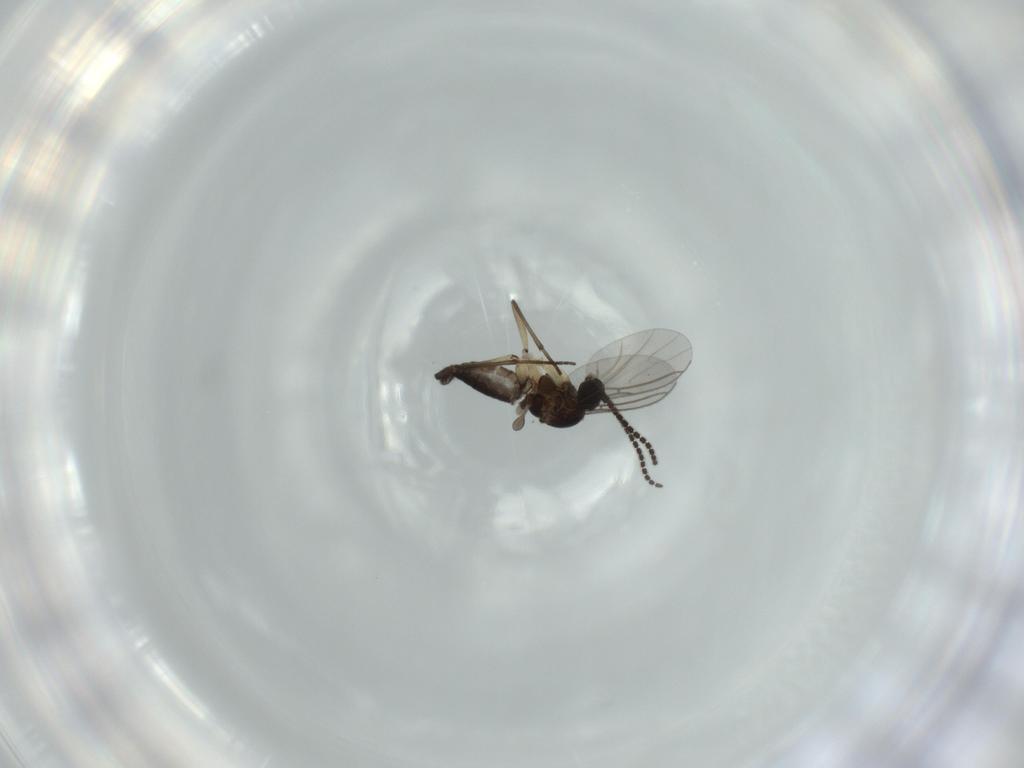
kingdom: Animalia
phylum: Arthropoda
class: Insecta
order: Diptera
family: Sciaridae
